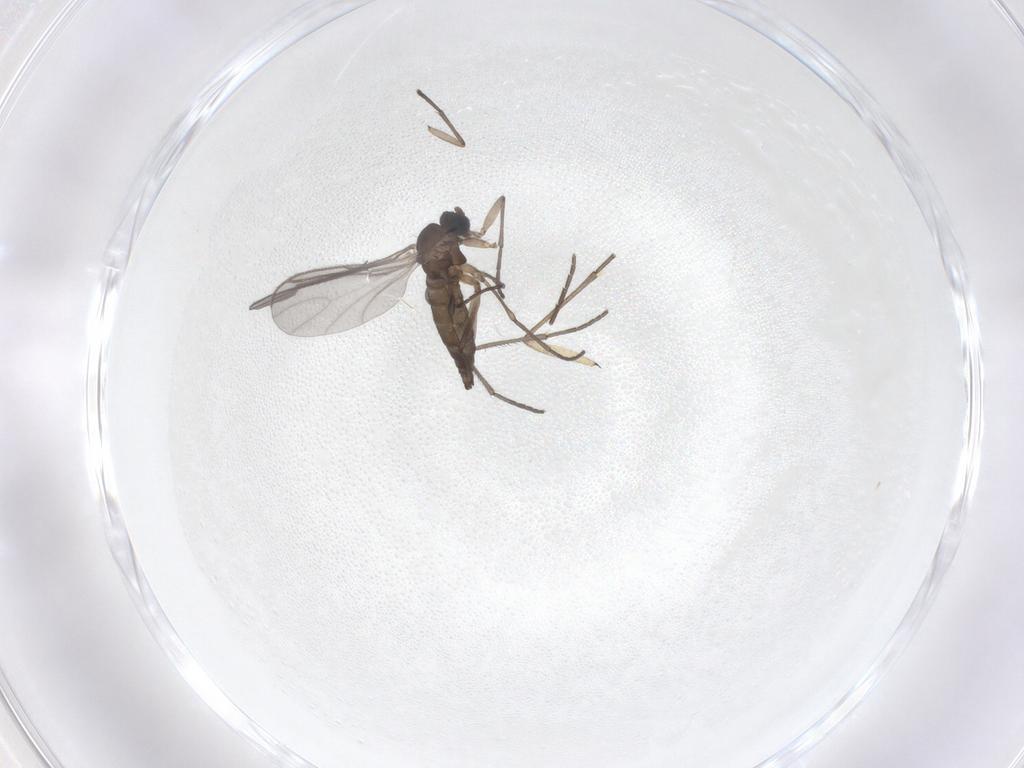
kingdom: Animalia
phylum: Arthropoda
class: Insecta
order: Diptera
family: Sciaridae
